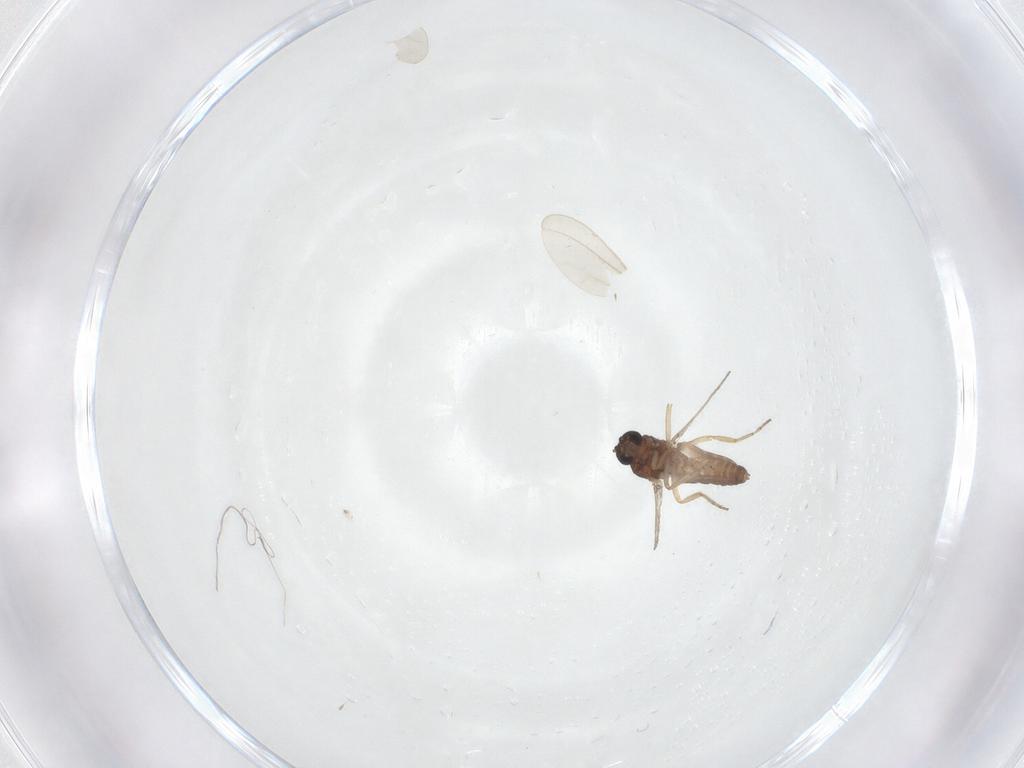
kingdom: Animalia
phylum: Arthropoda
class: Insecta
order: Diptera
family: Ceratopogonidae
